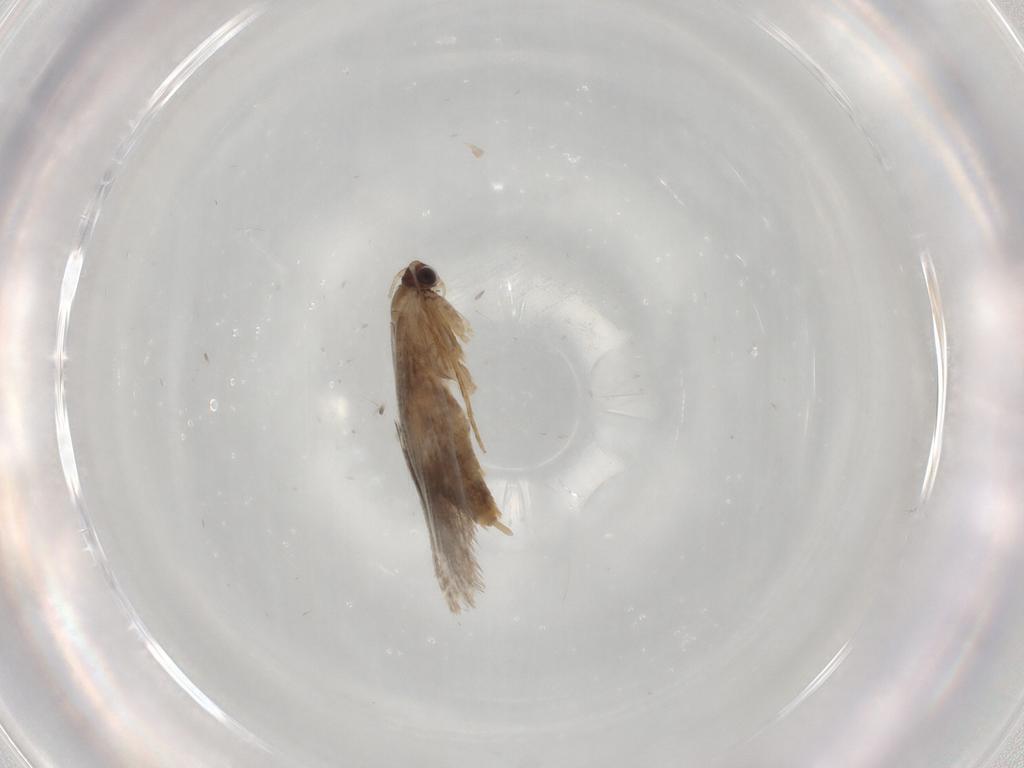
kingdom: Animalia
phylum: Arthropoda
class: Insecta
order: Lepidoptera
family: Tineidae
